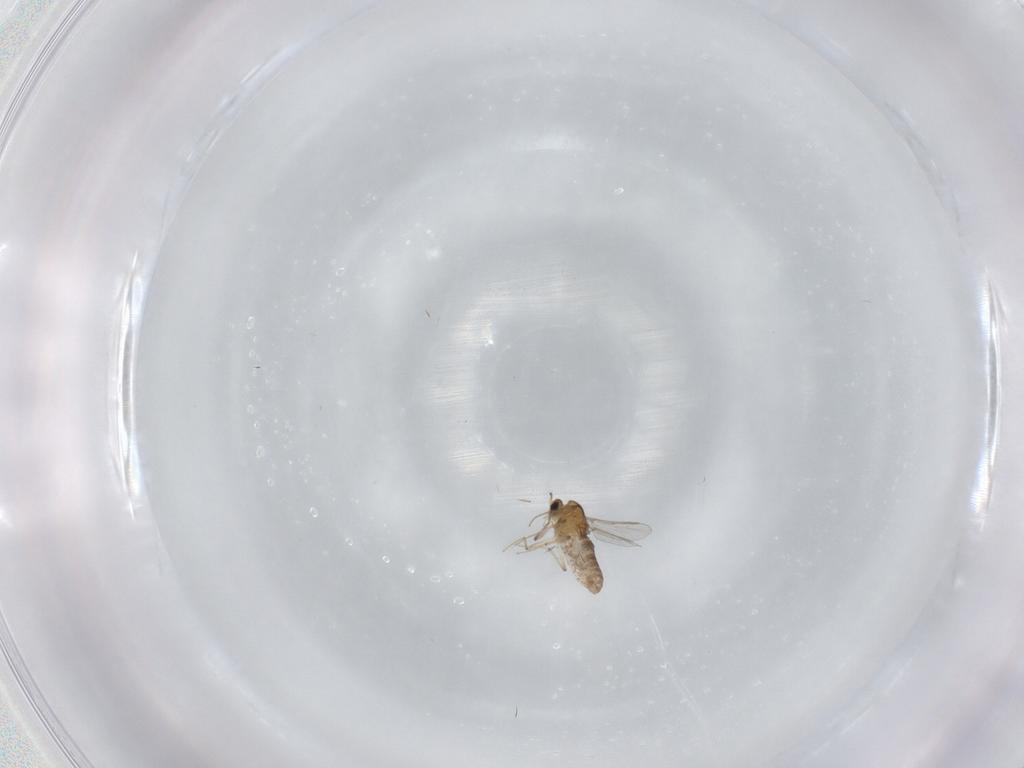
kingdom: Animalia
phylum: Arthropoda
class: Insecta
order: Diptera
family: Chironomidae
